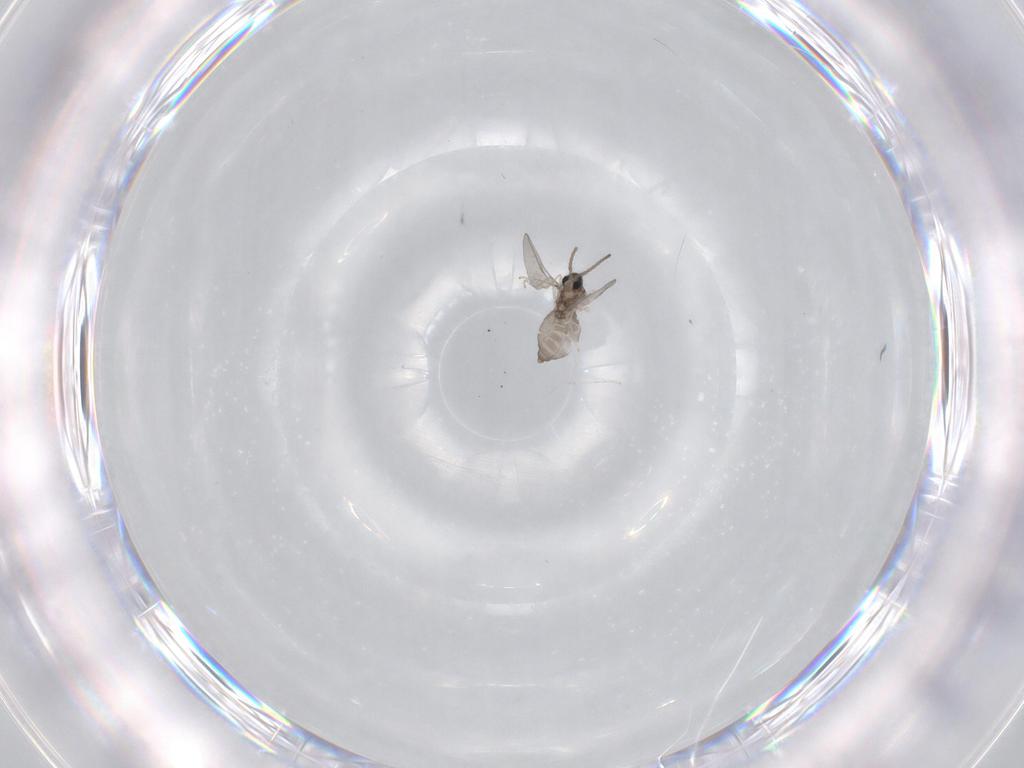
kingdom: Animalia
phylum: Arthropoda
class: Insecta
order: Diptera
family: Cecidomyiidae
